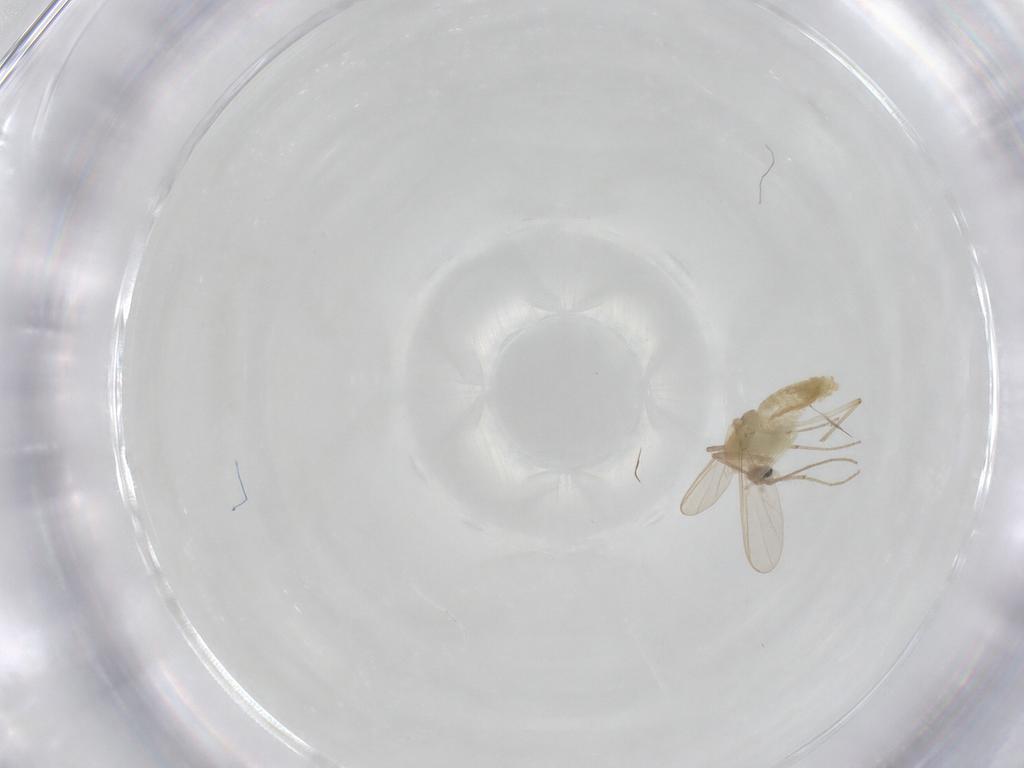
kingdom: Animalia
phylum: Arthropoda
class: Insecta
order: Diptera
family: Chironomidae
